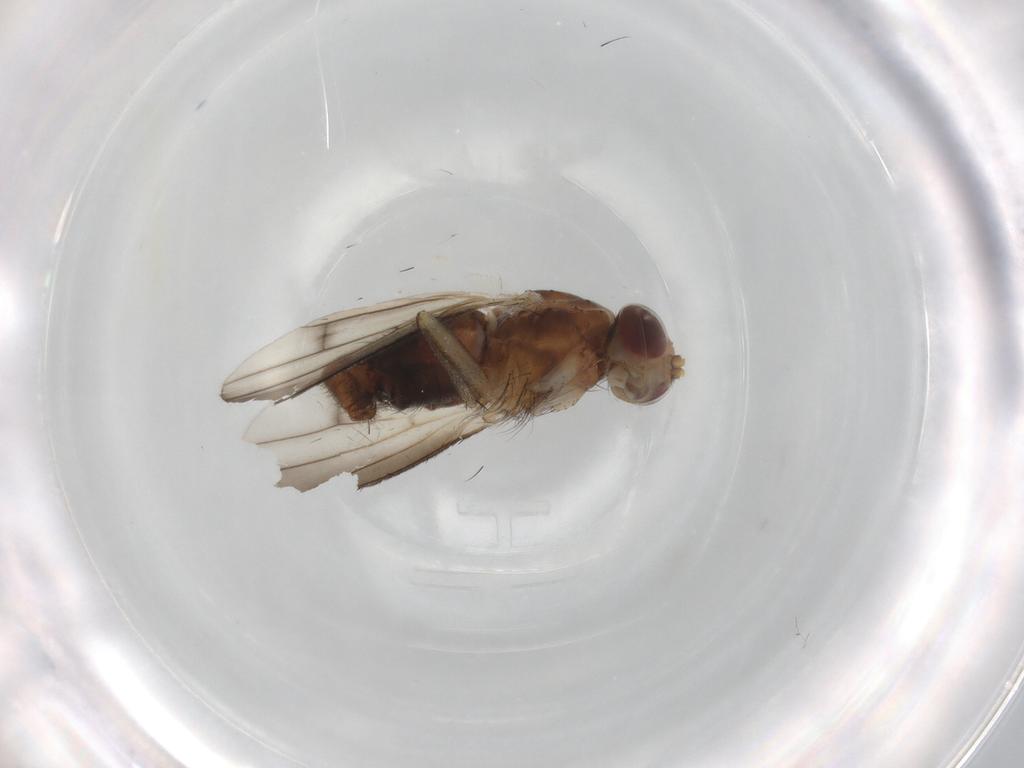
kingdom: Animalia
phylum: Arthropoda
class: Insecta
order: Diptera
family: Heleomyzidae
